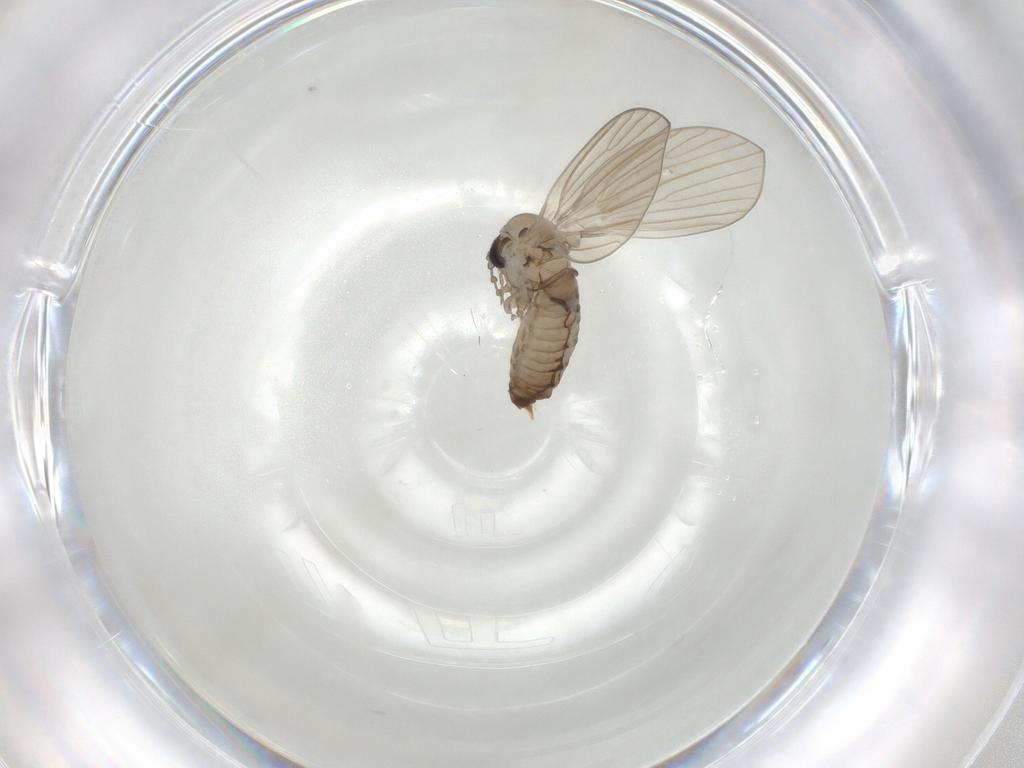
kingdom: Animalia
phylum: Arthropoda
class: Insecta
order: Diptera
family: Psychodidae
